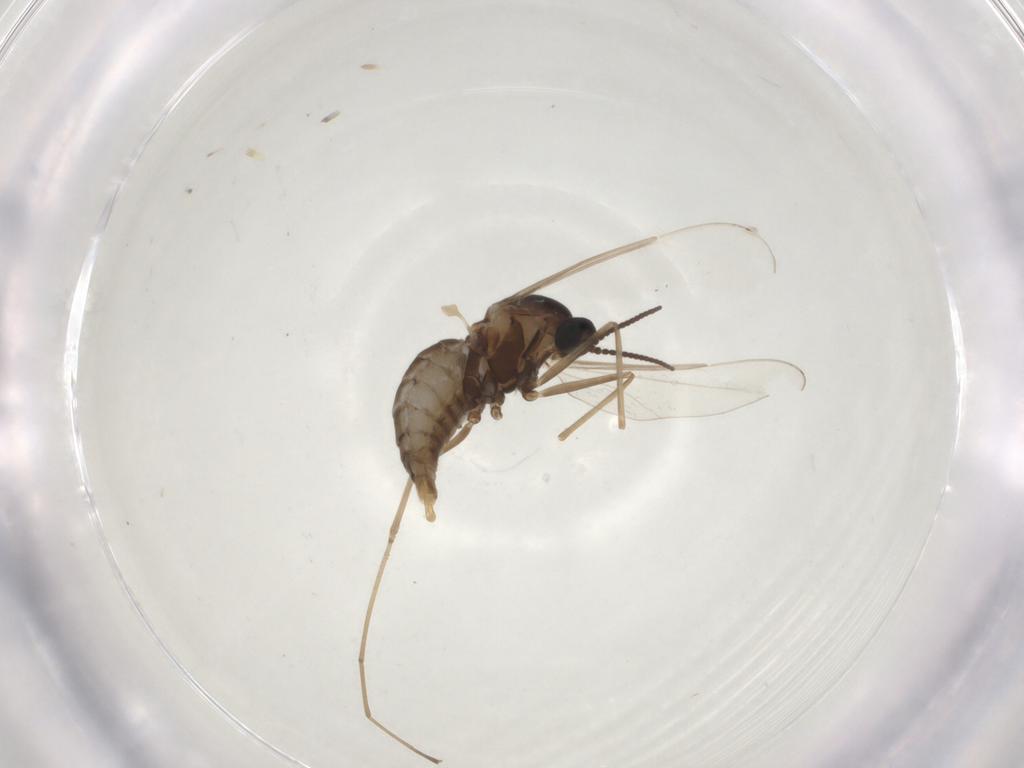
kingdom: Animalia
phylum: Arthropoda
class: Insecta
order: Diptera
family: Cecidomyiidae
